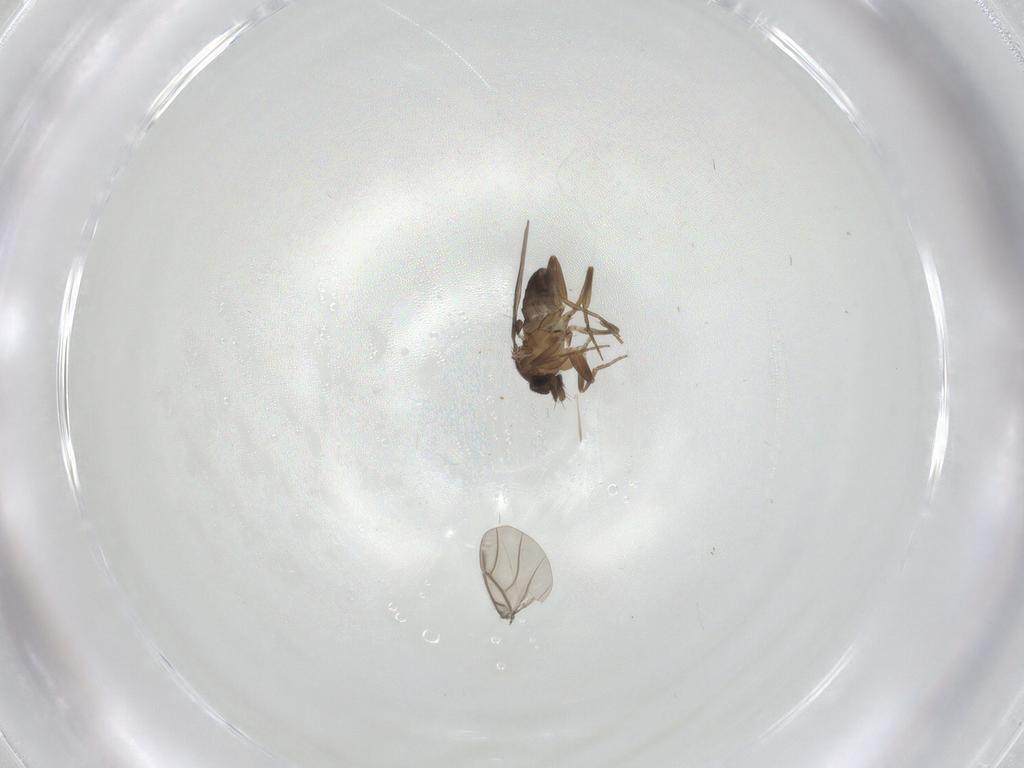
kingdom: Animalia
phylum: Arthropoda
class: Insecta
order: Diptera
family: Phoridae
